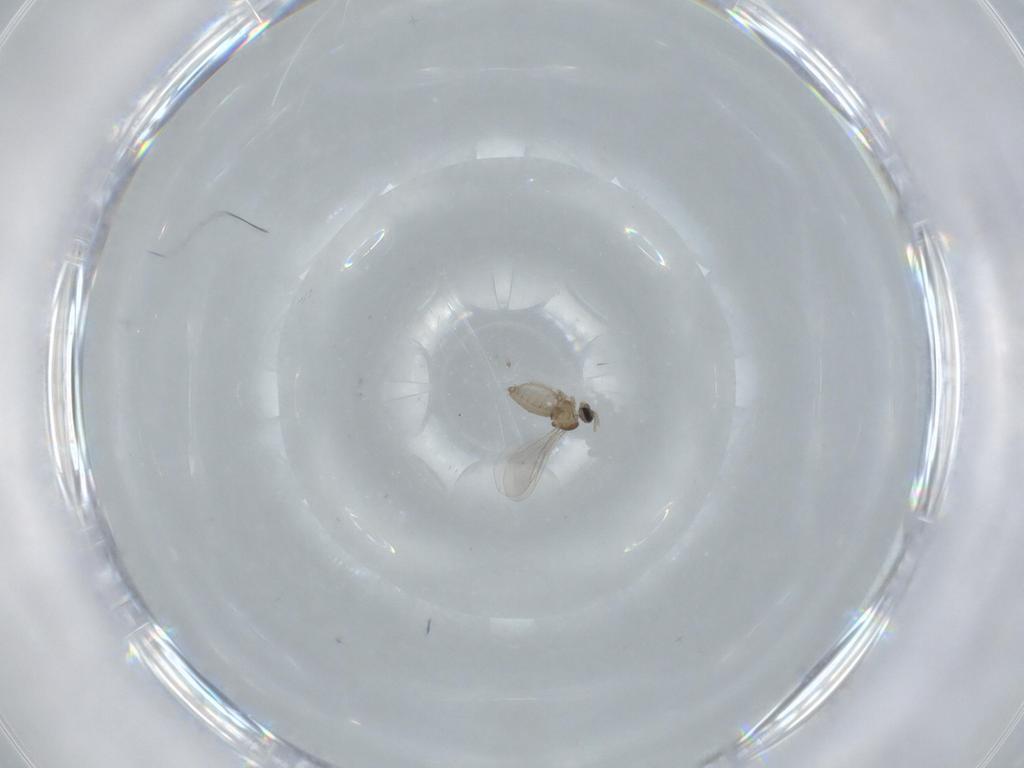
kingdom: Animalia
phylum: Arthropoda
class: Insecta
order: Diptera
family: Cecidomyiidae
